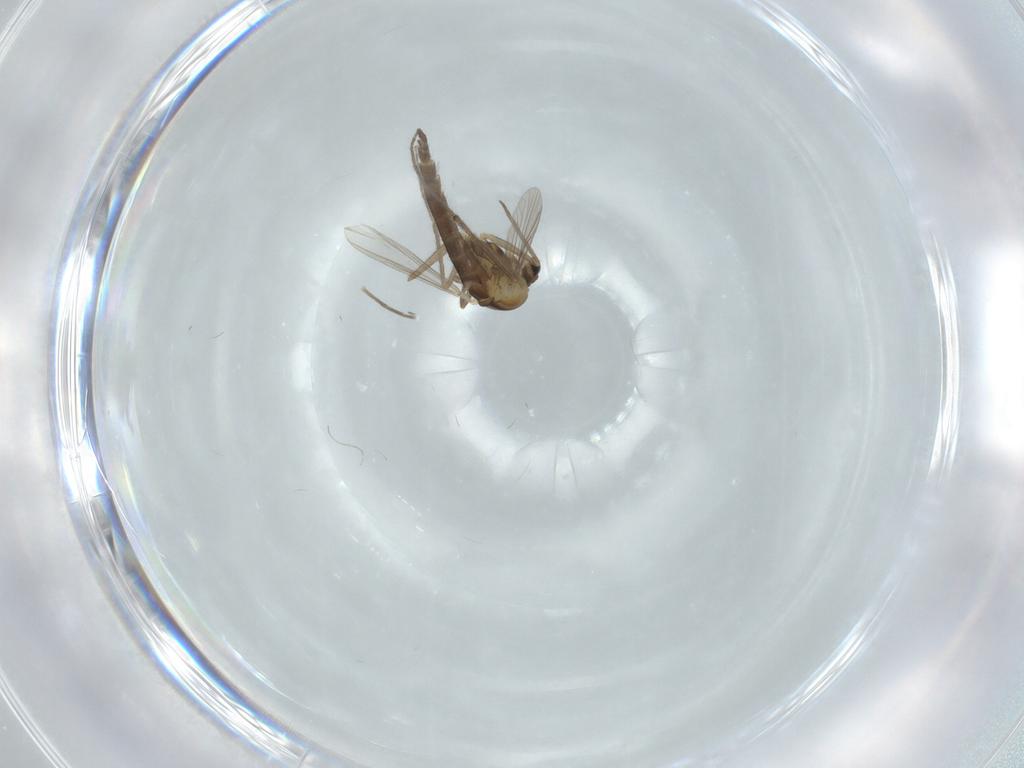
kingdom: Animalia
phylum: Arthropoda
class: Insecta
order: Diptera
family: Chironomidae
